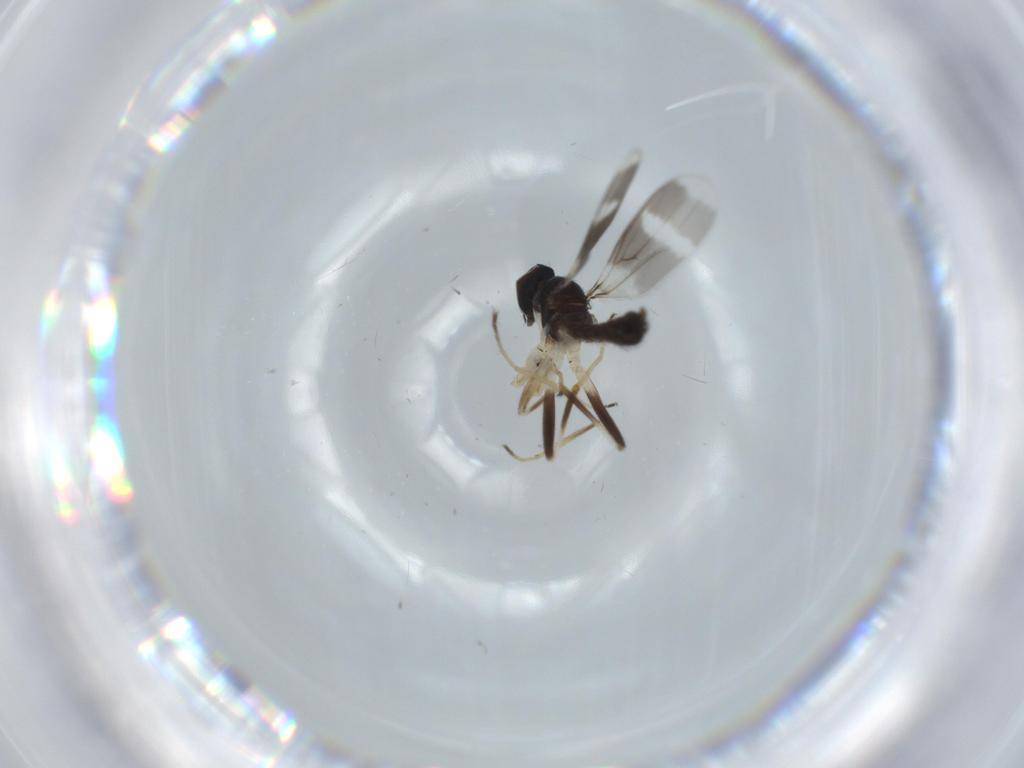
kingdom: Animalia
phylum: Arthropoda
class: Insecta
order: Diptera
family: Hybotidae
